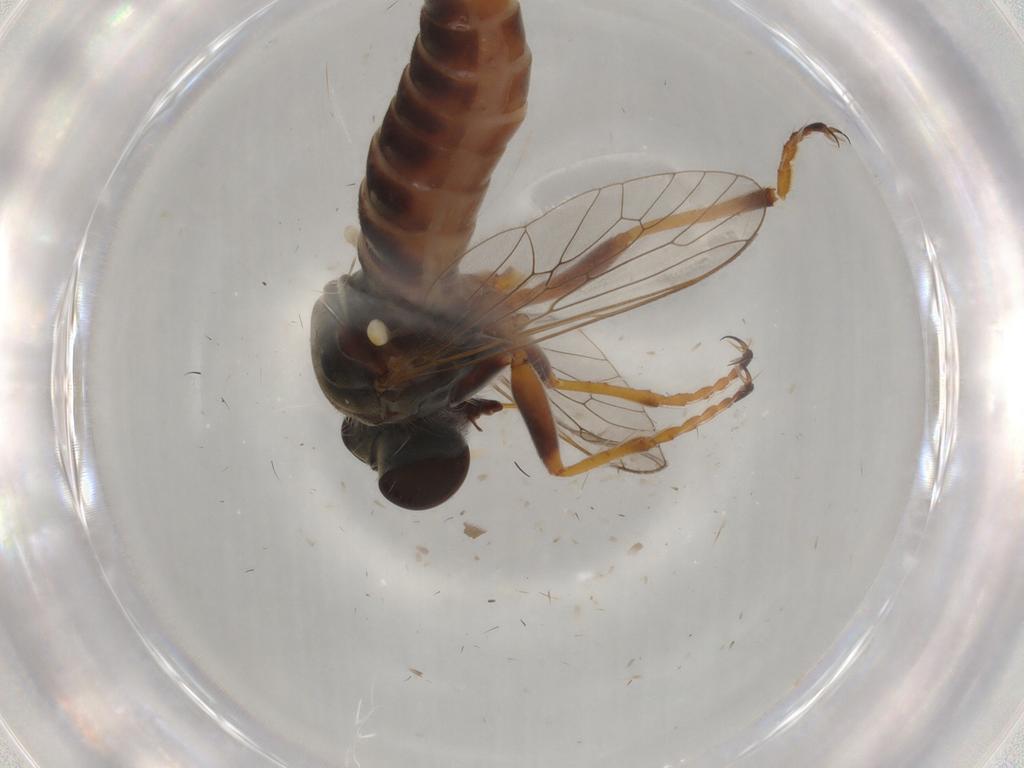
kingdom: Animalia
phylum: Arthropoda
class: Insecta
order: Diptera
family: Asilidae
